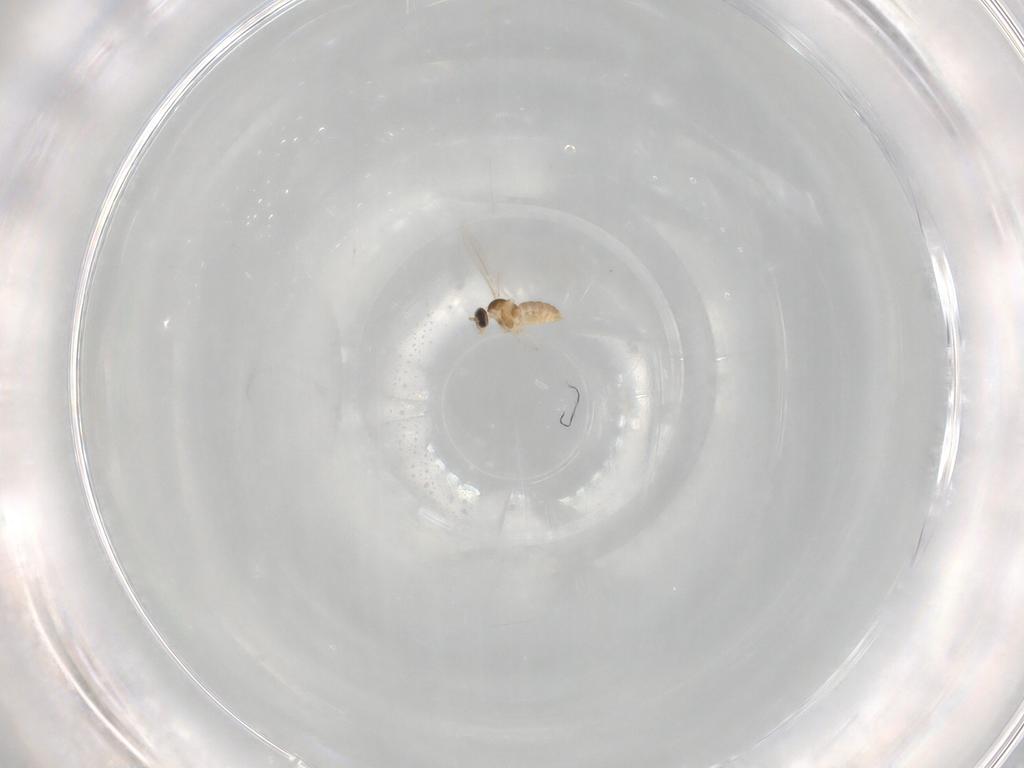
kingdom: Animalia
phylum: Arthropoda
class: Insecta
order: Diptera
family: Cecidomyiidae
